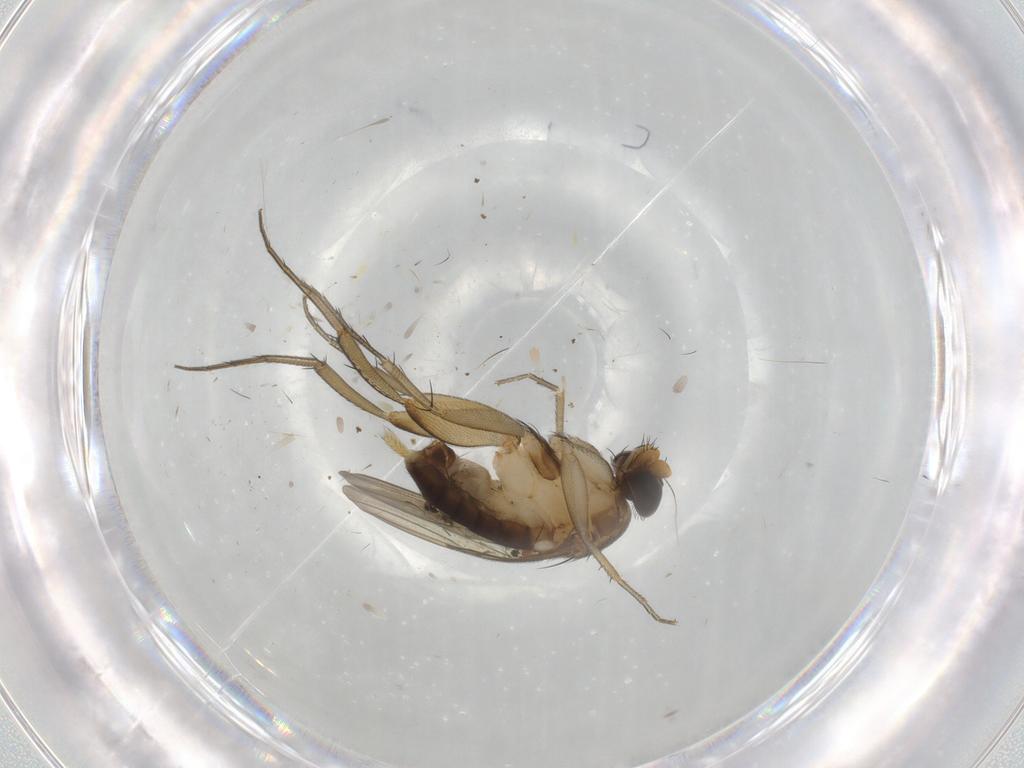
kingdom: Animalia
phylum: Arthropoda
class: Insecta
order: Diptera
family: Phoridae
